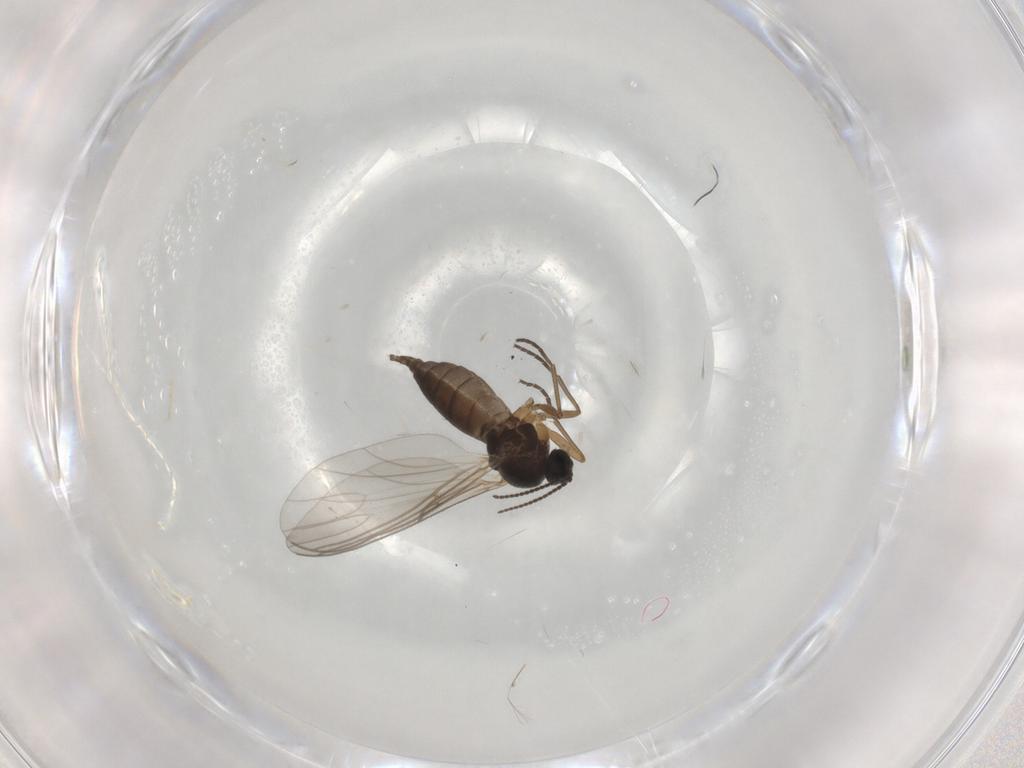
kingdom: Animalia
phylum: Arthropoda
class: Insecta
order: Diptera
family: Sciaridae
